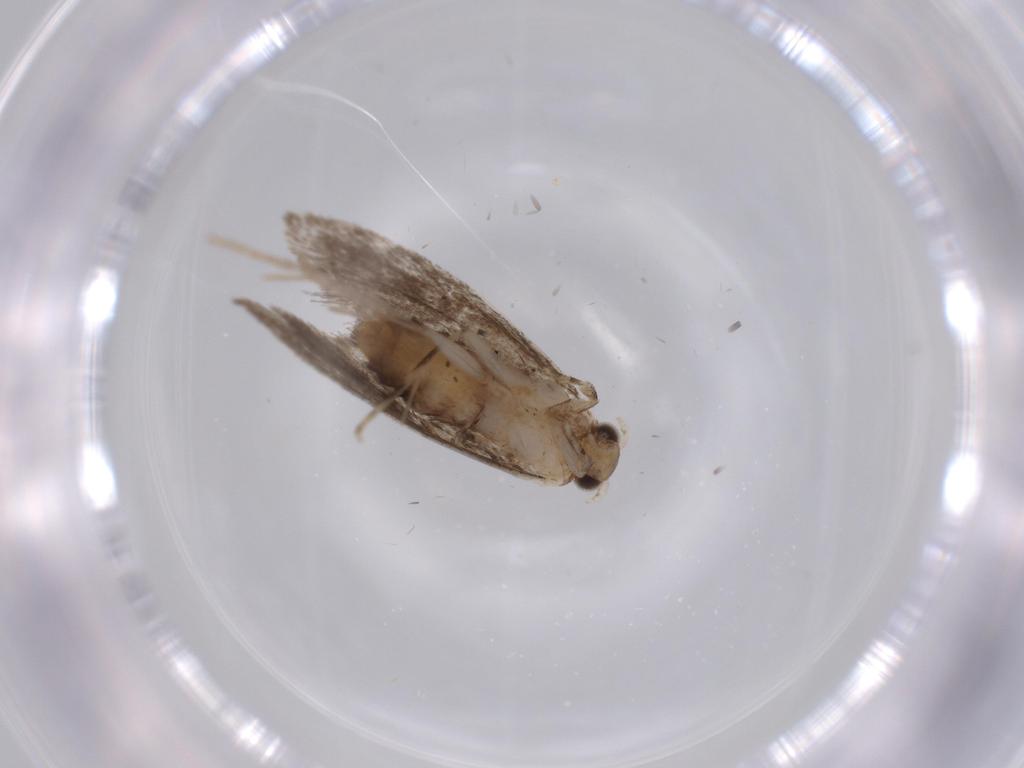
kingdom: Animalia
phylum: Arthropoda
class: Insecta
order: Lepidoptera
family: Tineidae
